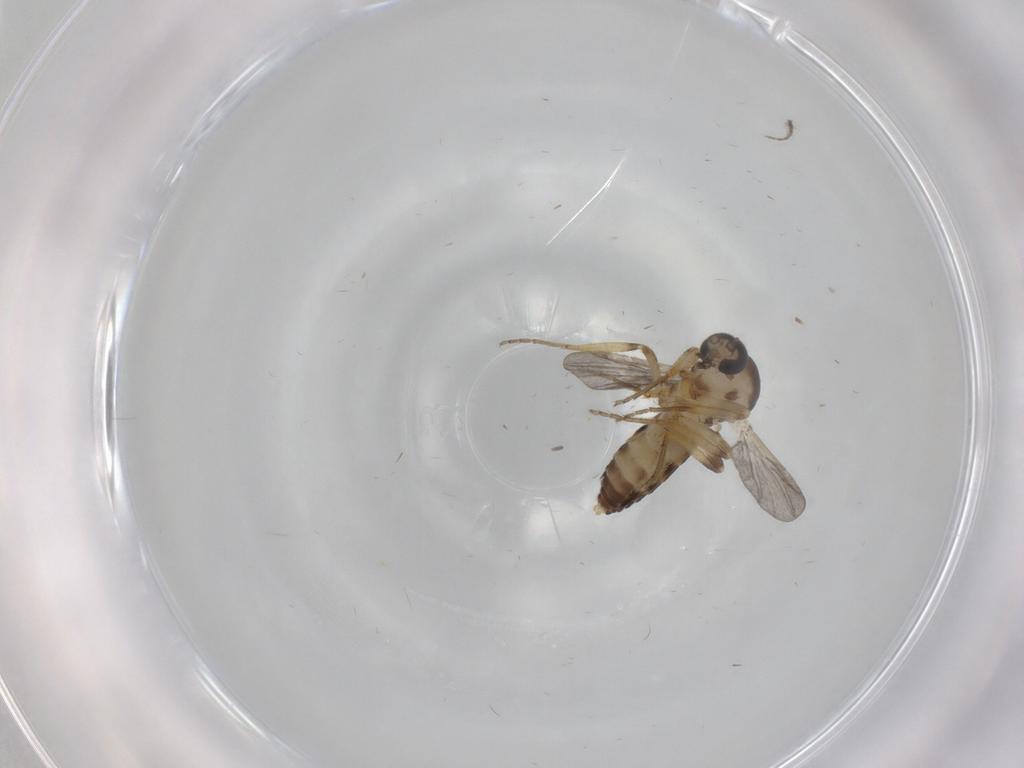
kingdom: Animalia
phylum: Arthropoda
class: Insecta
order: Diptera
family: Ceratopogonidae
